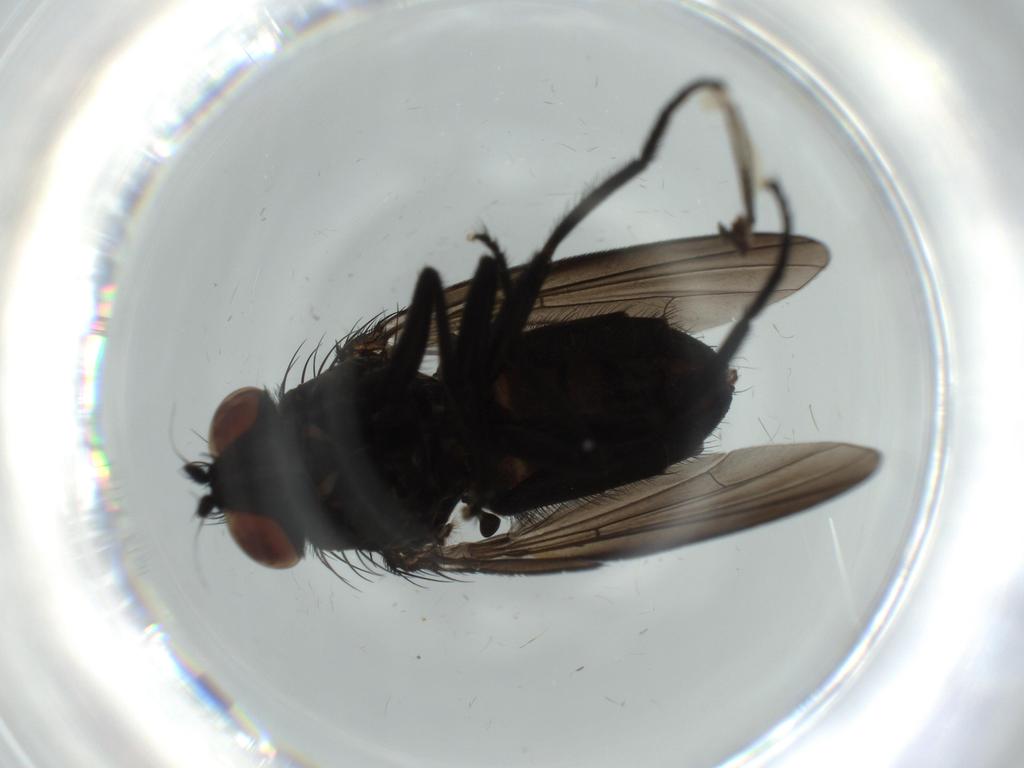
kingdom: Animalia
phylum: Arthropoda
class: Insecta
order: Diptera
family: Milichiidae
